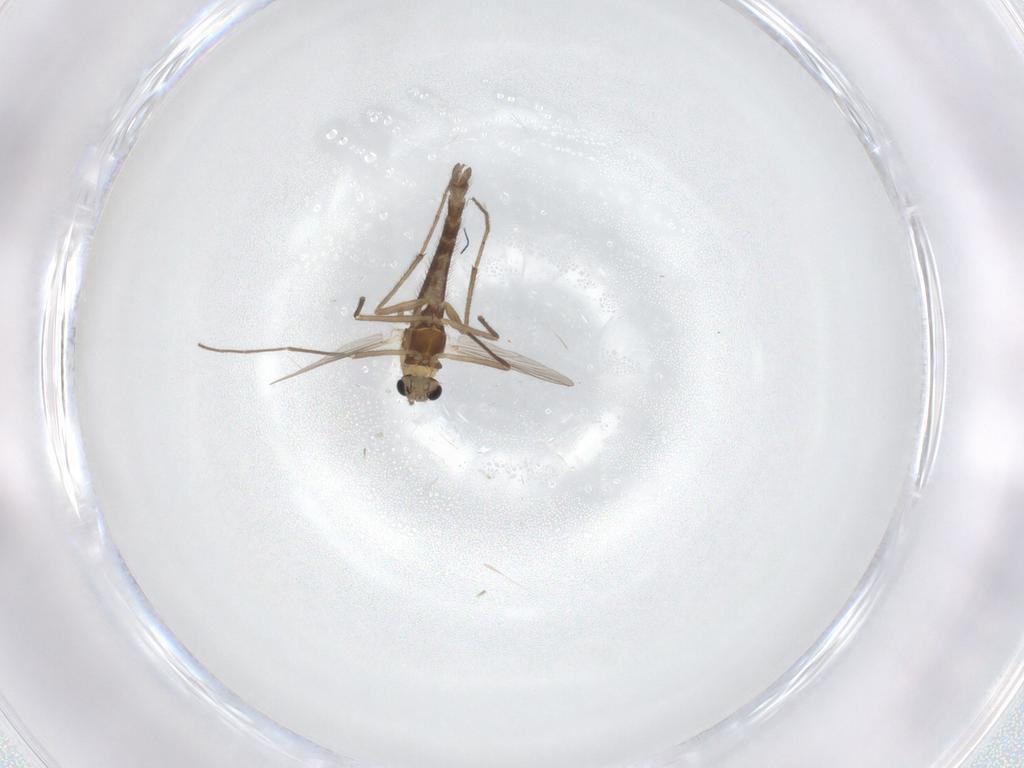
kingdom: Animalia
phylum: Arthropoda
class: Insecta
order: Diptera
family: Chironomidae
